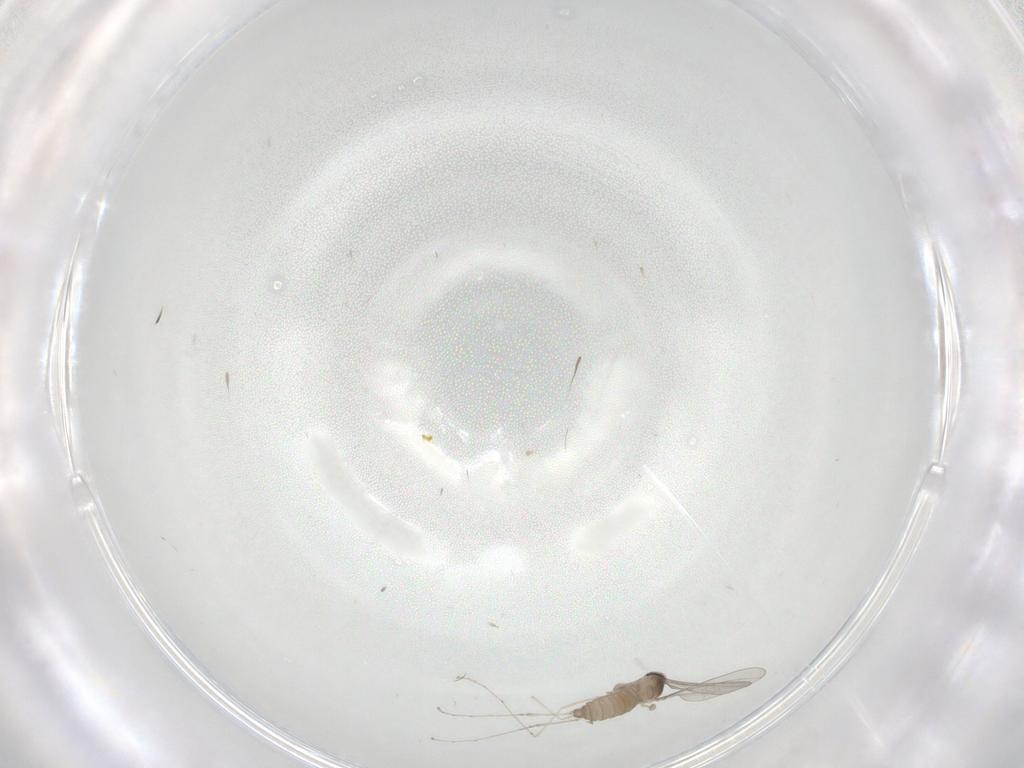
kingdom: Animalia
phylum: Arthropoda
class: Insecta
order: Diptera
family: Cecidomyiidae
